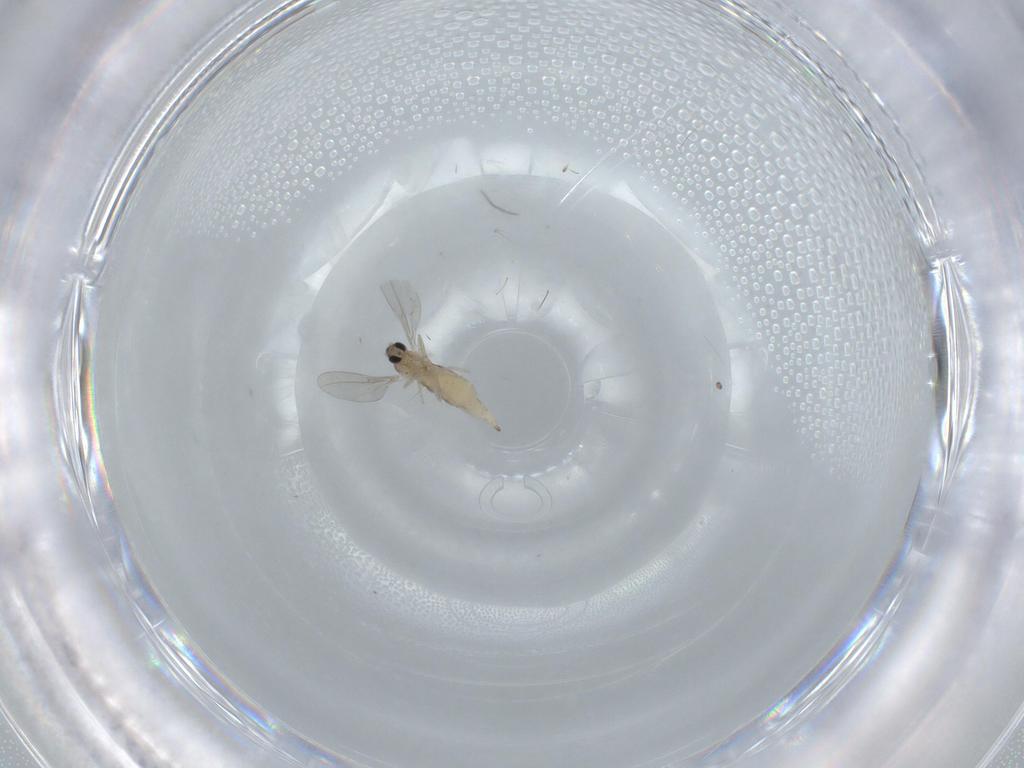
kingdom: Animalia
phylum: Arthropoda
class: Insecta
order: Diptera
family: Cecidomyiidae
